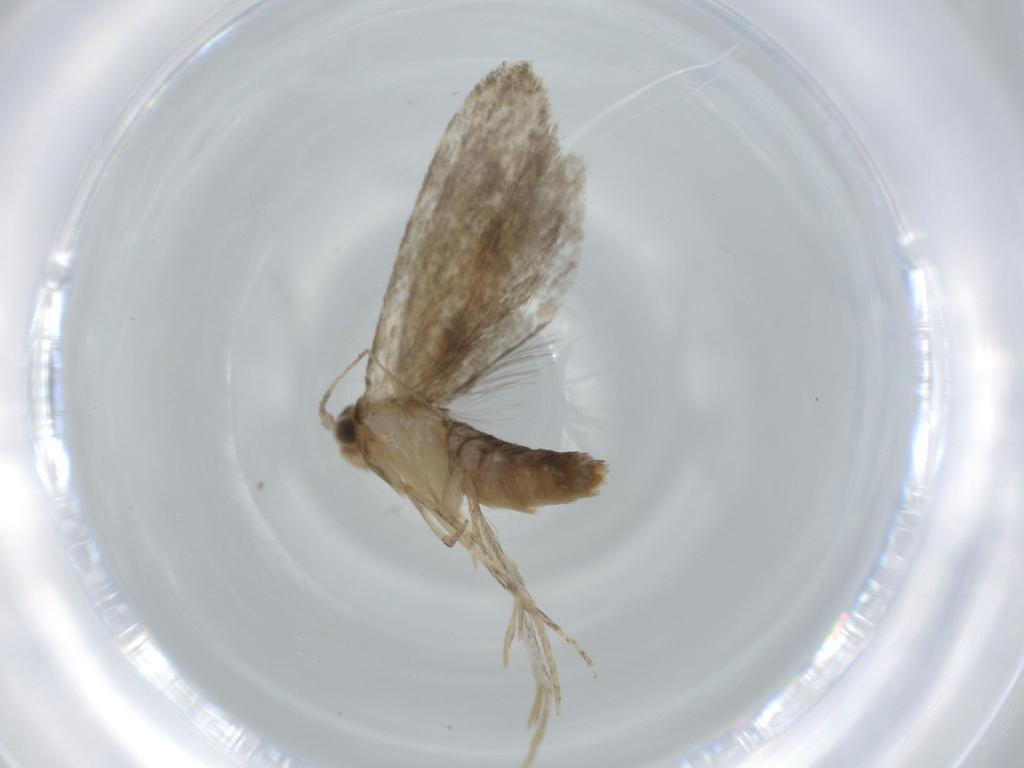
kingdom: Animalia
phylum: Arthropoda
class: Insecta
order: Lepidoptera
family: Tineidae
